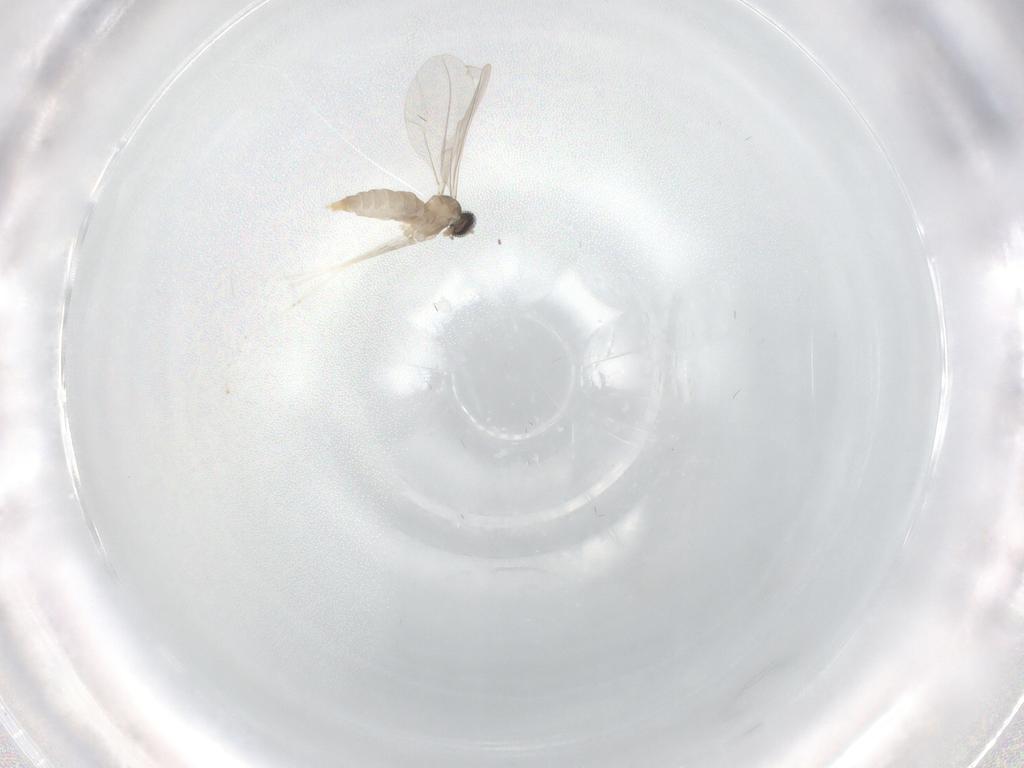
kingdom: Animalia
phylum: Arthropoda
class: Insecta
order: Diptera
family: Cecidomyiidae
